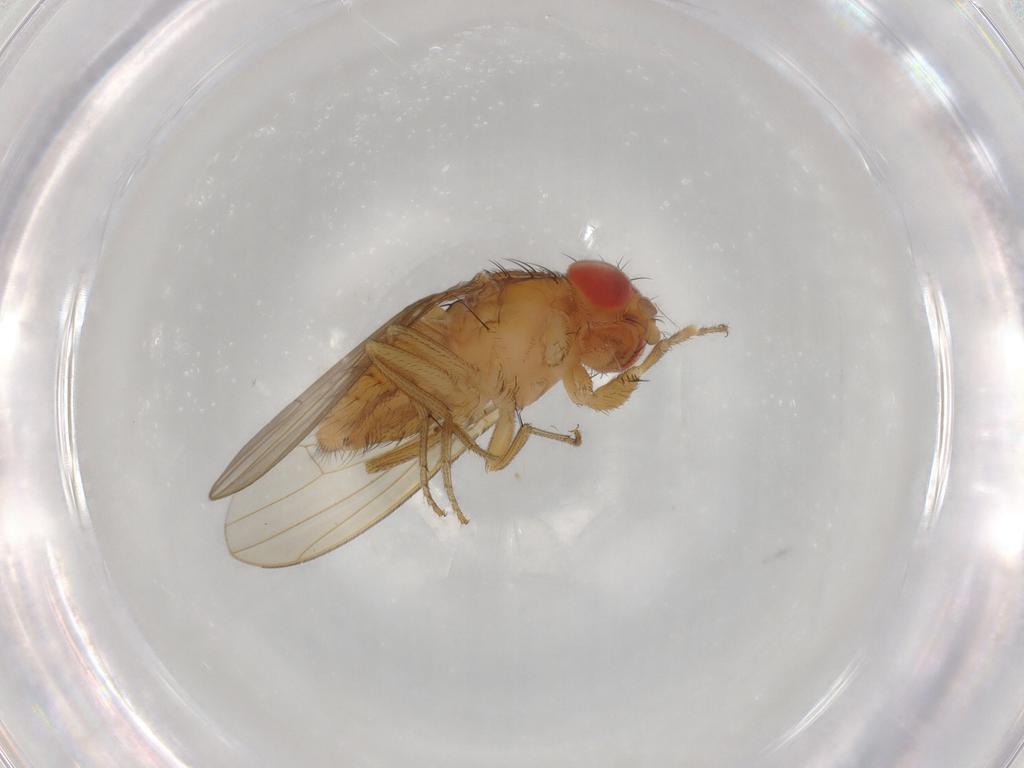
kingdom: Animalia
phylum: Arthropoda
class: Insecta
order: Diptera
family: Drosophilidae
